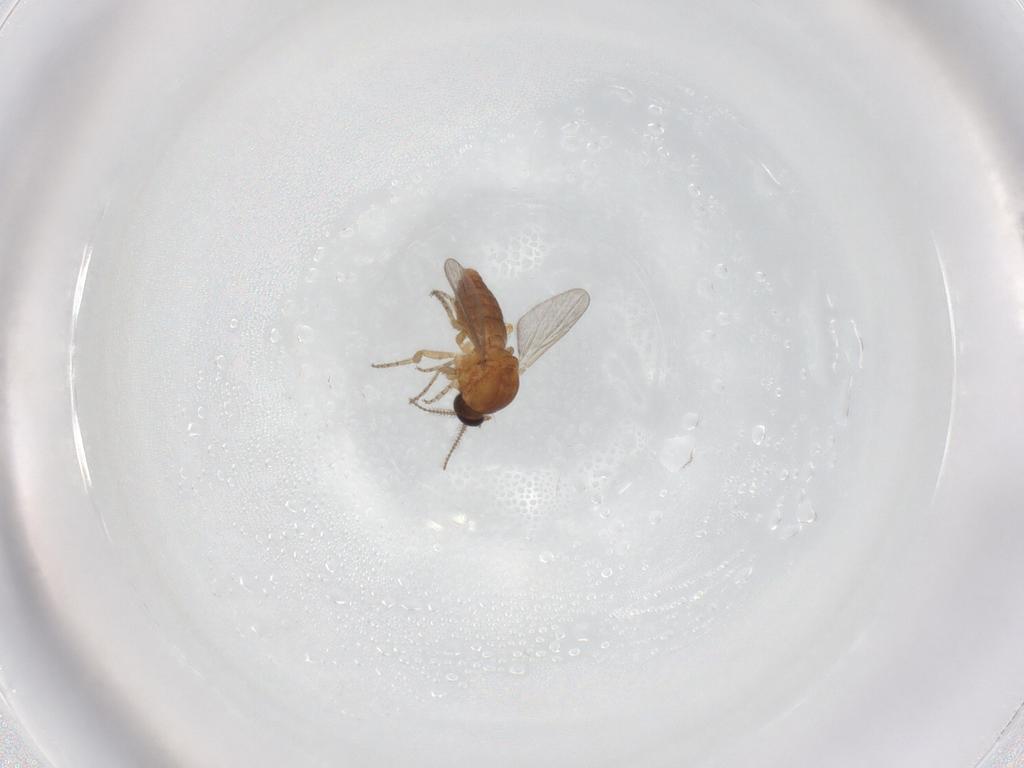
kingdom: Animalia
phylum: Arthropoda
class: Insecta
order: Diptera
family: Ceratopogonidae
